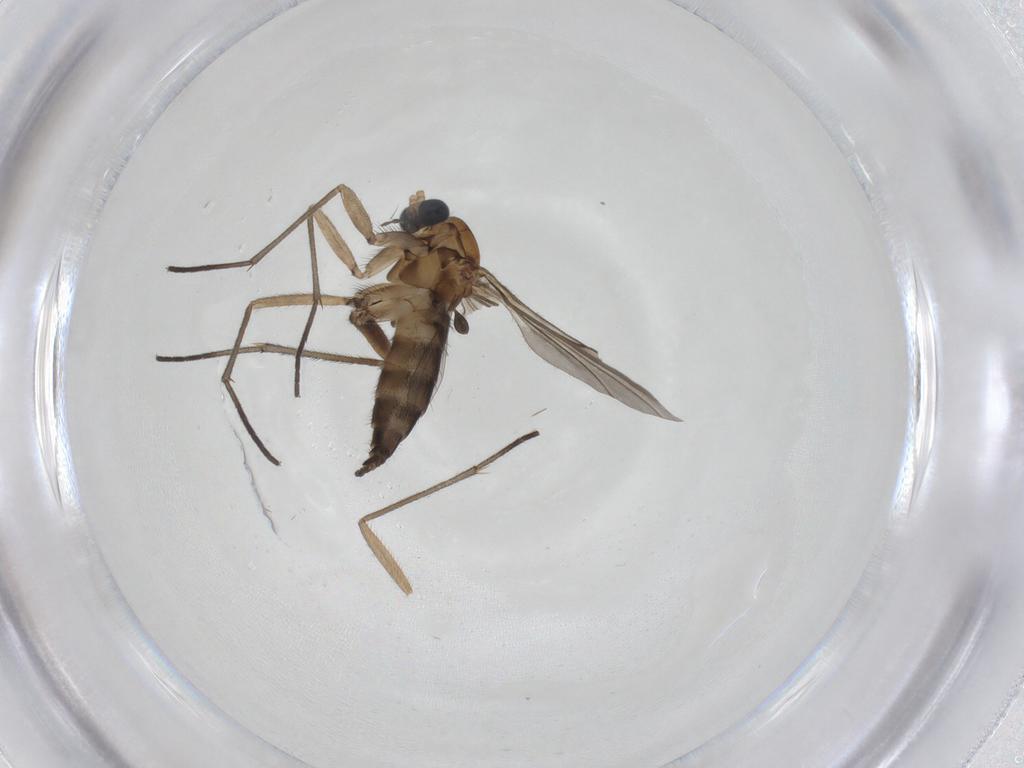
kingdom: Animalia
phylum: Arthropoda
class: Insecta
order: Diptera
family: Sciaridae
